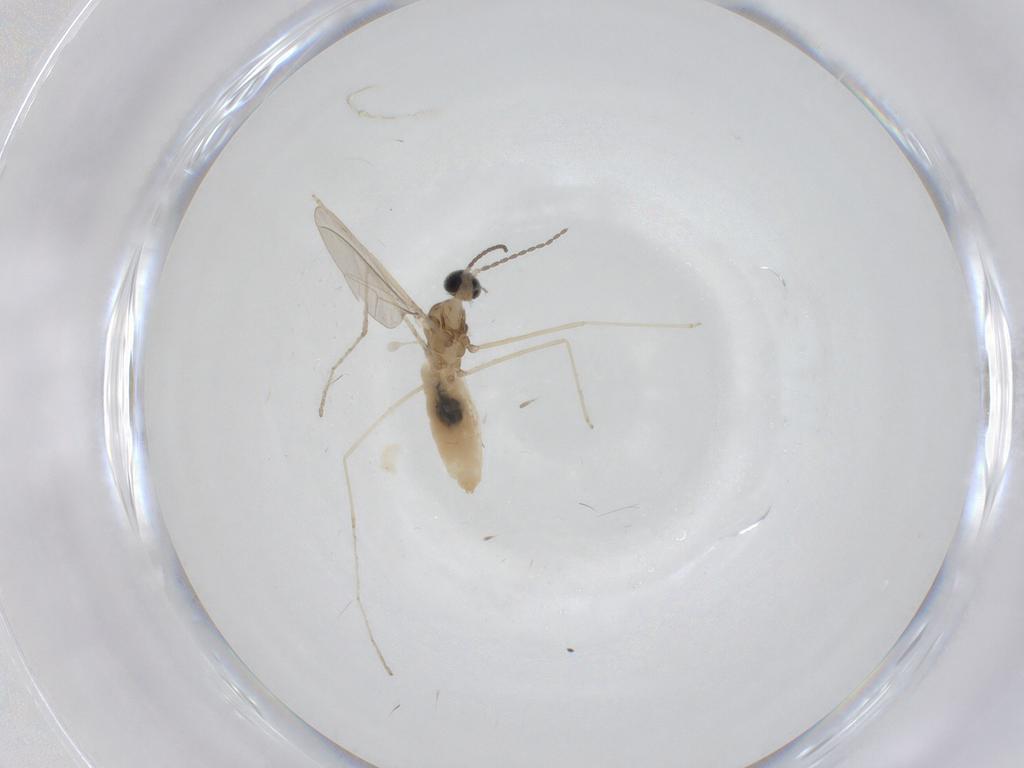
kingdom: Animalia
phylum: Arthropoda
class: Insecta
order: Diptera
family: Cecidomyiidae
